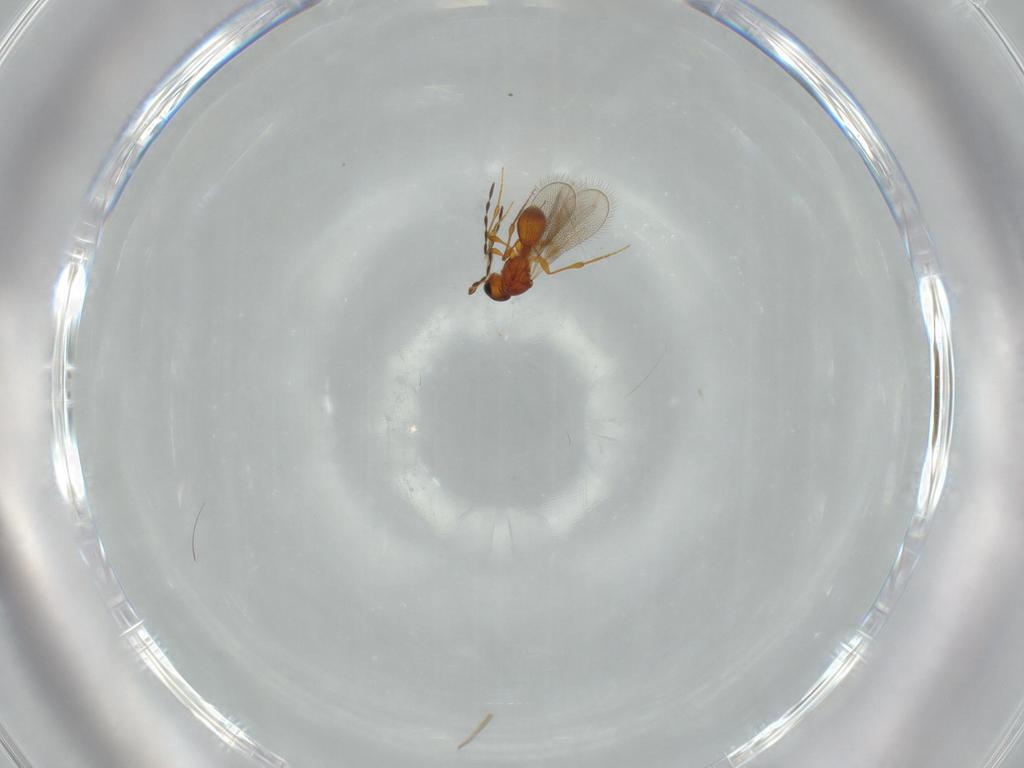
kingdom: Animalia
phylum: Arthropoda
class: Insecta
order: Hymenoptera
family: Platygastridae
